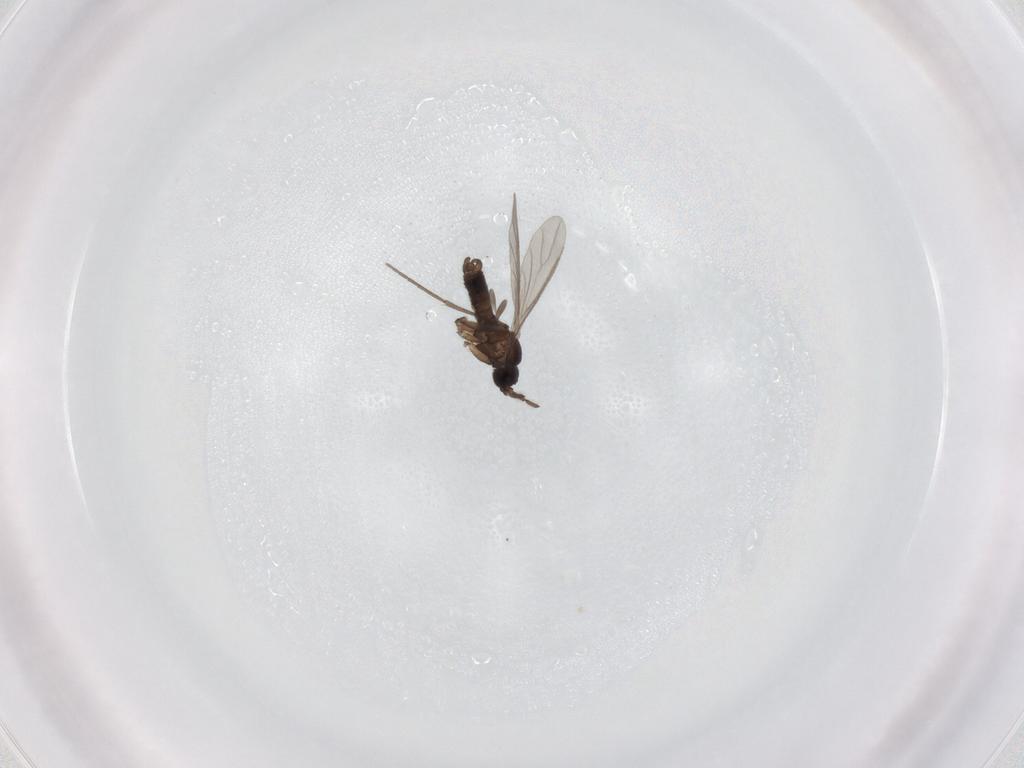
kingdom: Animalia
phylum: Arthropoda
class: Insecta
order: Diptera
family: Sciaridae
